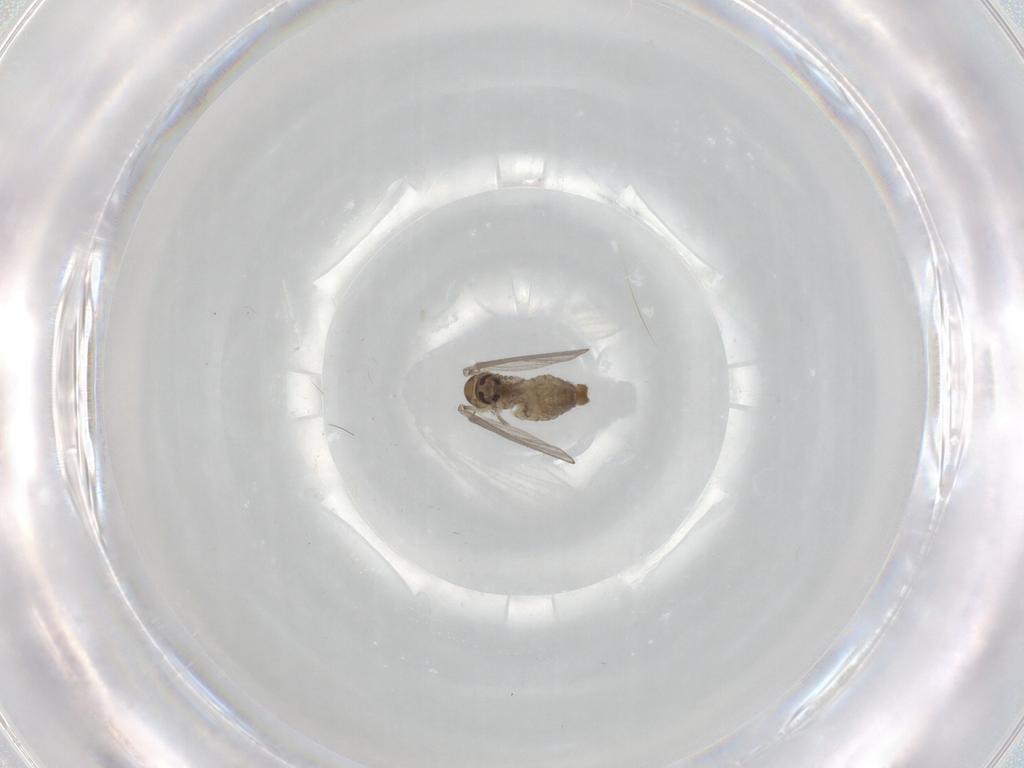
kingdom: Animalia
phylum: Arthropoda
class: Insecta
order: Diptera
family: Psychodidae
